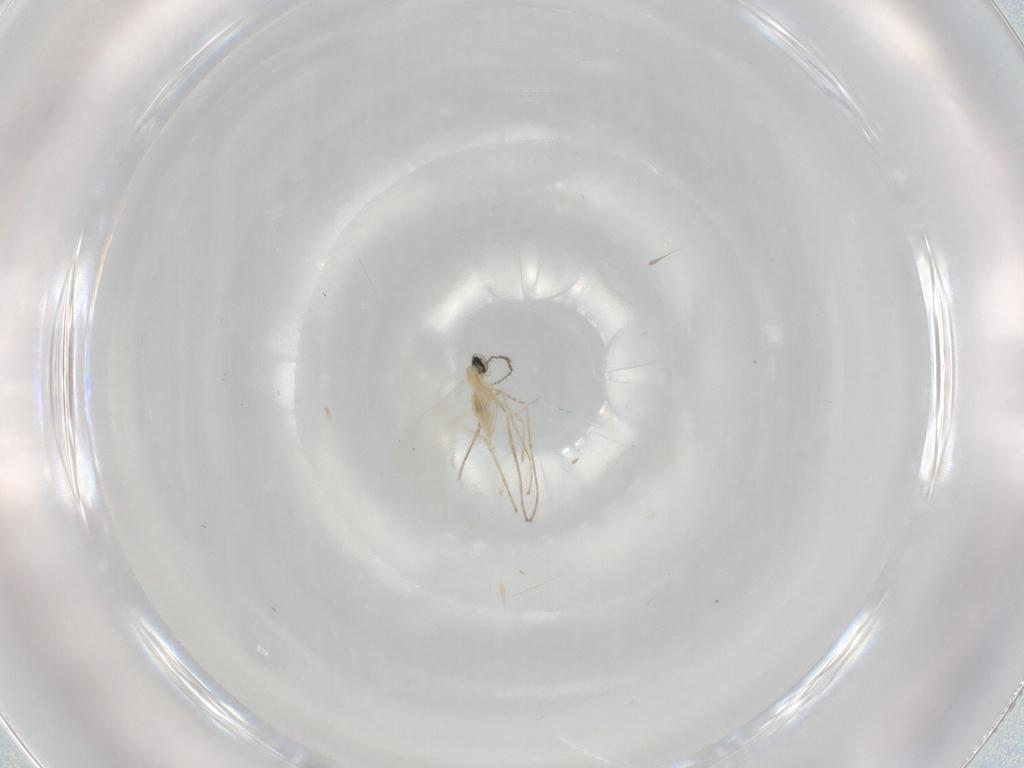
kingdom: Animalia
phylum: Arthropoda
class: Insecta
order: Diptera
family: Cecidomyiidae
